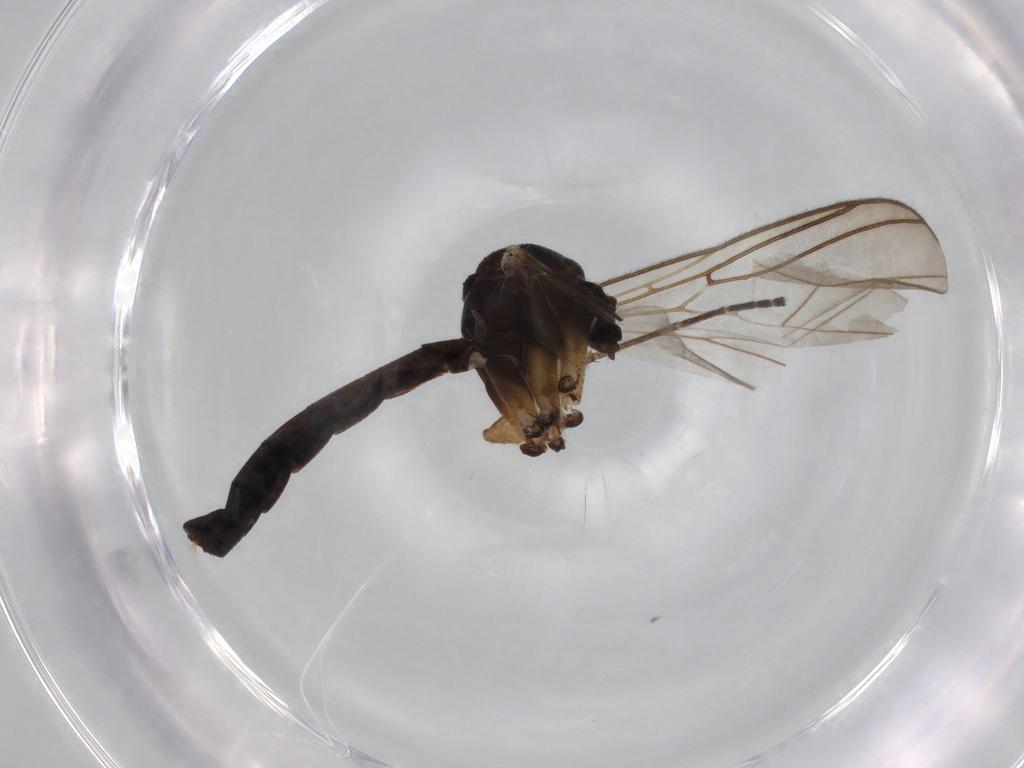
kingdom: Animalia
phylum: Arthropoda
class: Insecta
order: Diptera
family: Mycetophilidae
